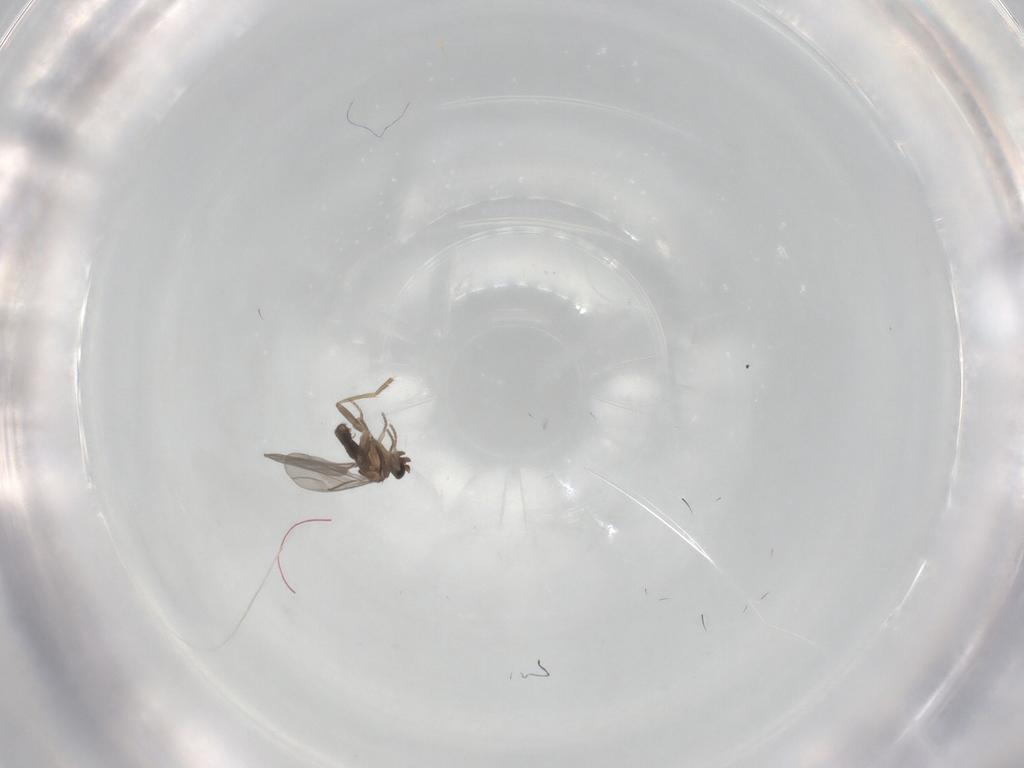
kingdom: Animalia
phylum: Arthropoda
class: Insecta
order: Diptera
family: Dolichopodidae
